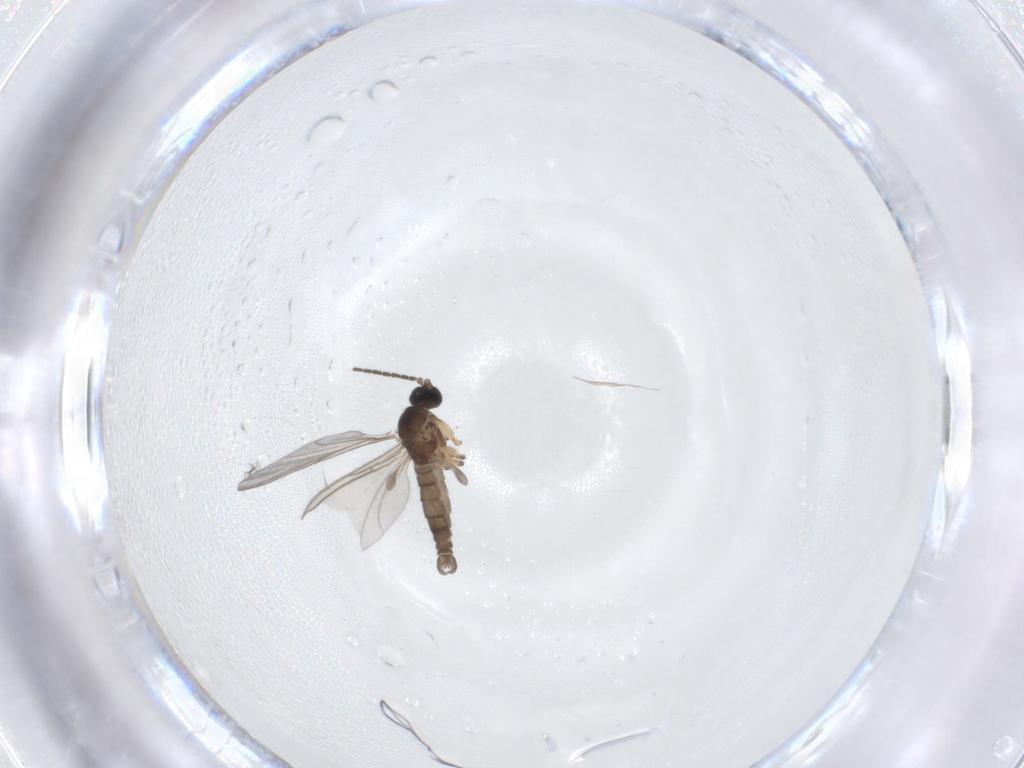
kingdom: Animalia
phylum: Arthropoda
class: Insecta
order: Diptera
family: Sciaridae
